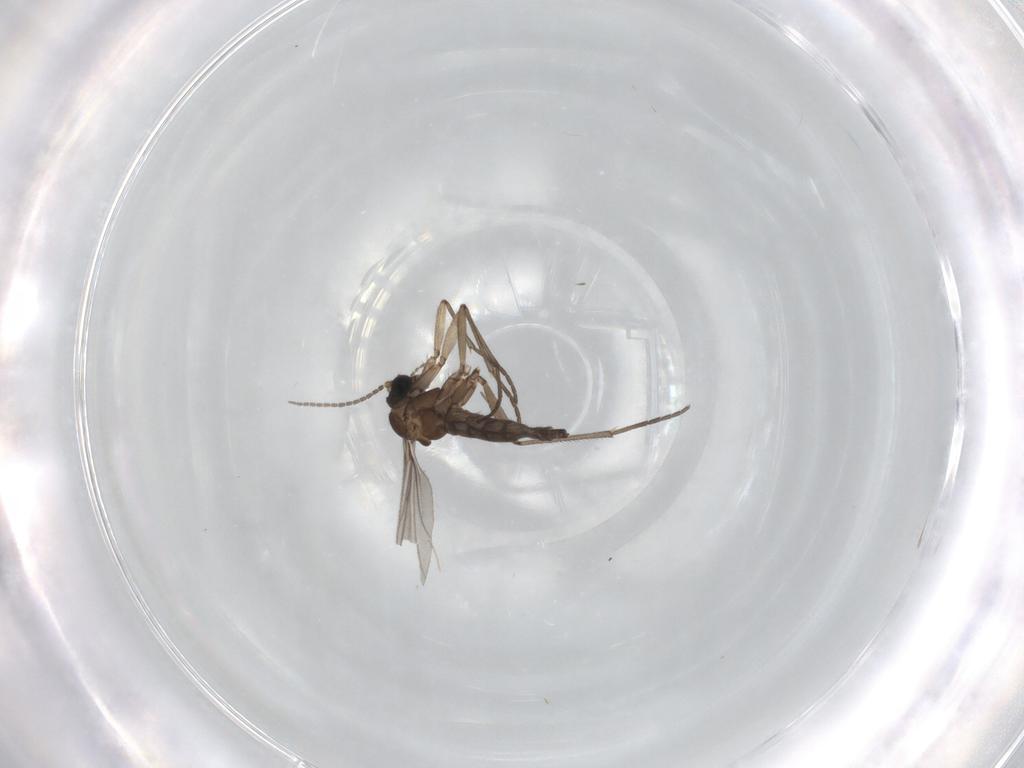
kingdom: Animalia
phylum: Arthropoda
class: Insecta
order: Diptera
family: Sciaridae
